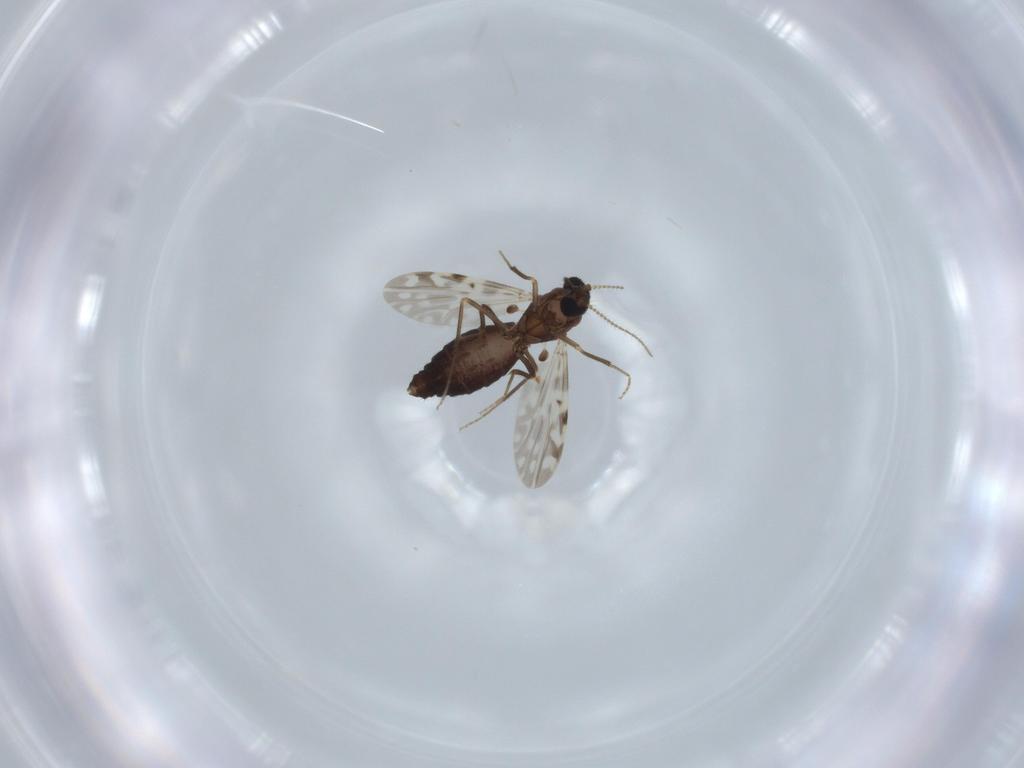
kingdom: Animalia
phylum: Arthropoda
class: Insecta
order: Diptera
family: Ceratopogonidae
